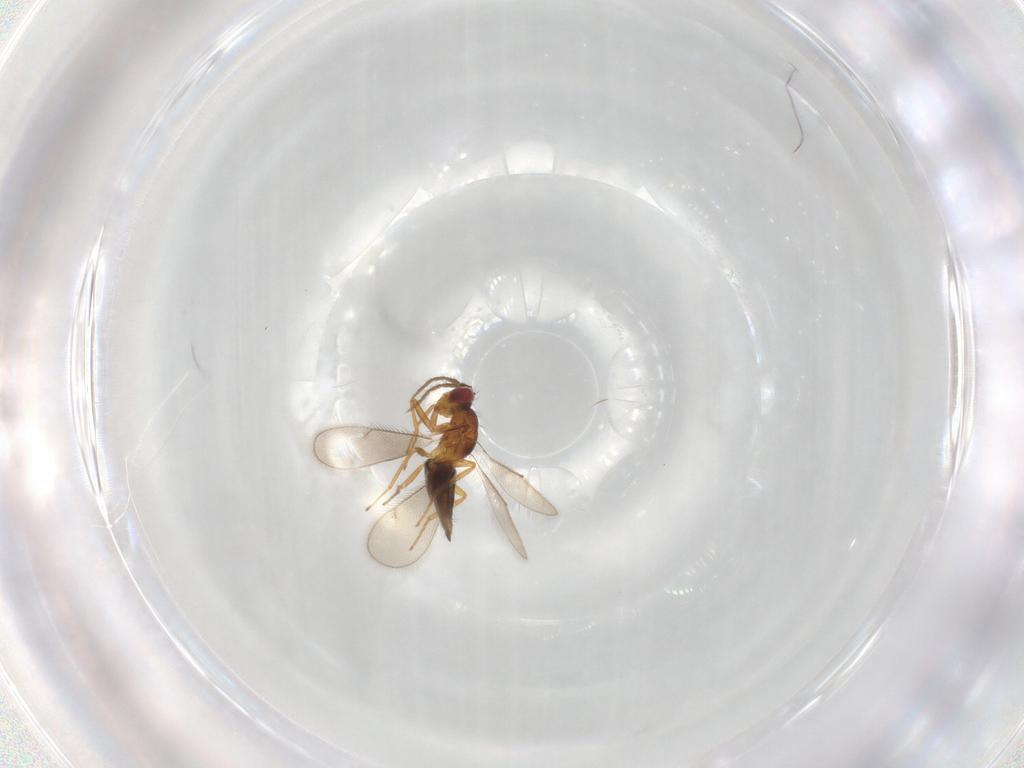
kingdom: Animalia
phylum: Arthropoda
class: Insecta
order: Hymenoptera
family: Eulophidae
